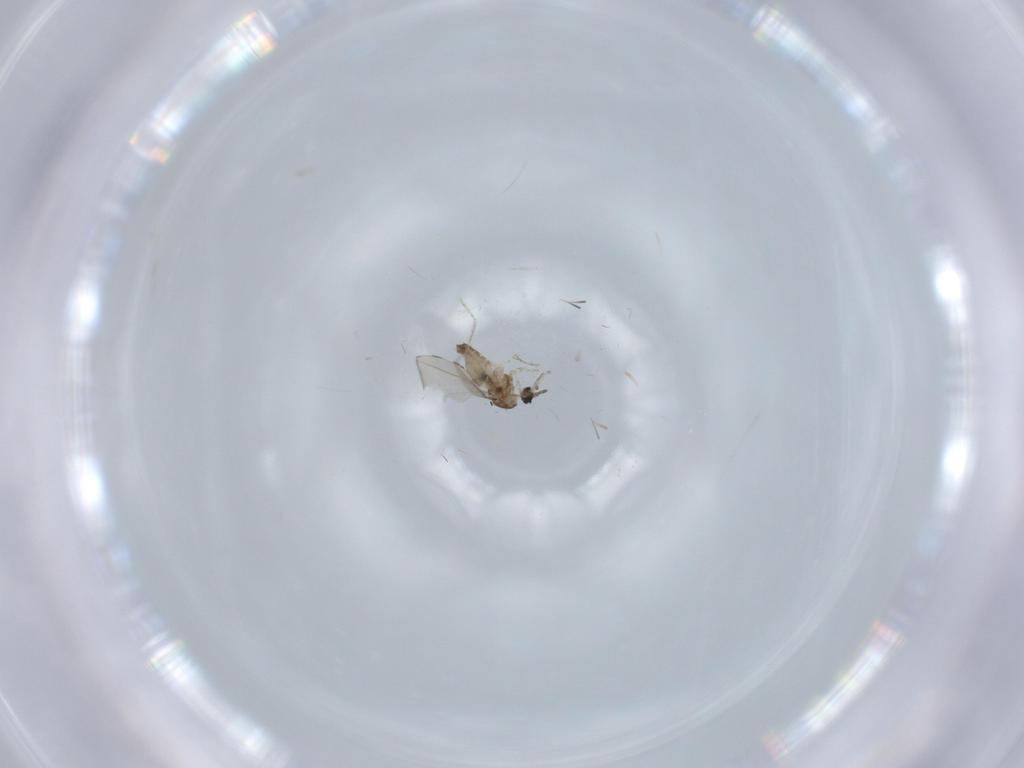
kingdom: Animalia
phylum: Arthropoda
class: Insecta
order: Diptera
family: Cecidomyiidae
